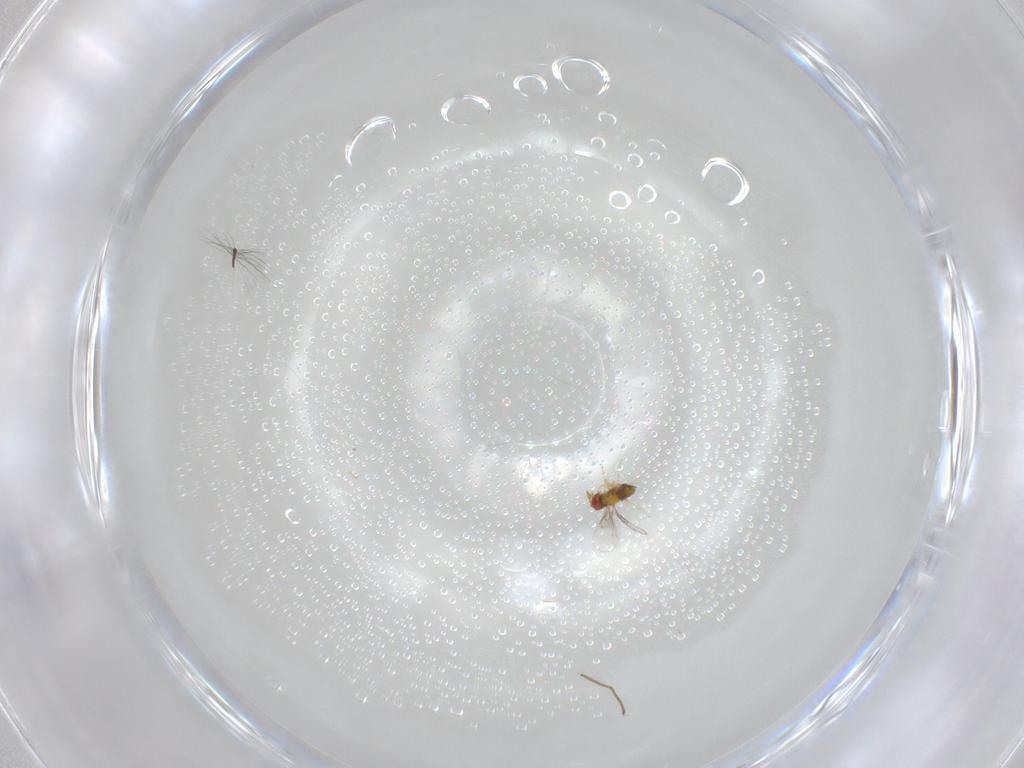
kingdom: Animalia
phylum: Arthropoda
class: Insecta
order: Hymenoptera
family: Trichogrammatidae
